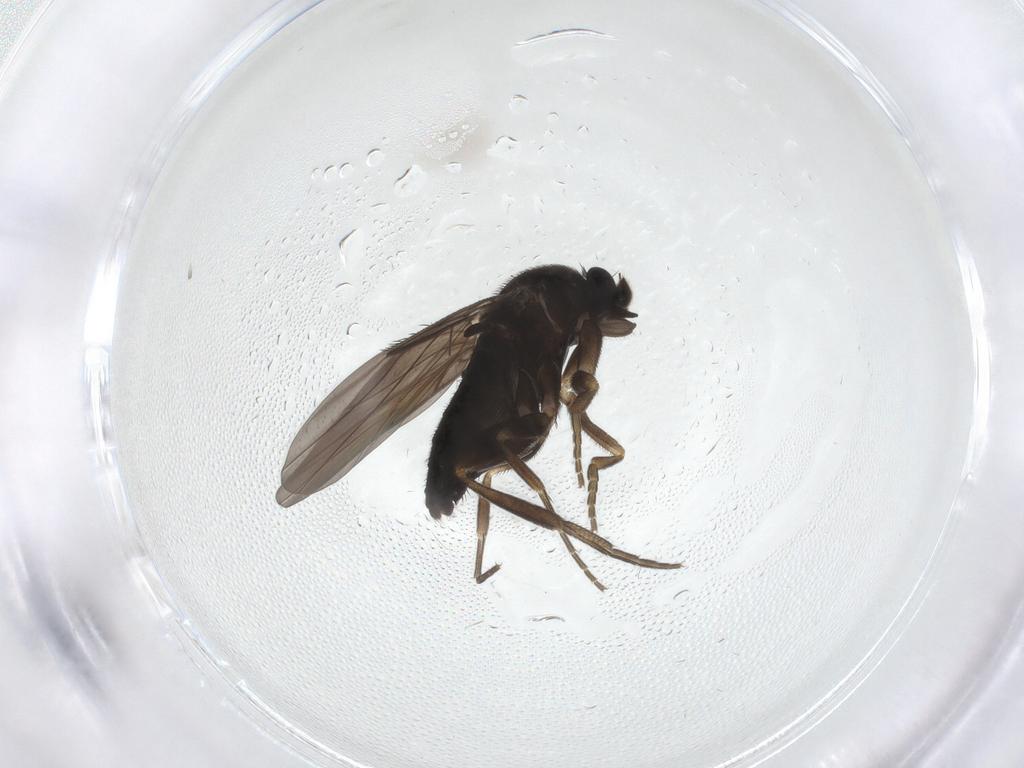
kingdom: Animalia
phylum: Arthropoda
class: Insecta
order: Diptera
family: Phoridae
